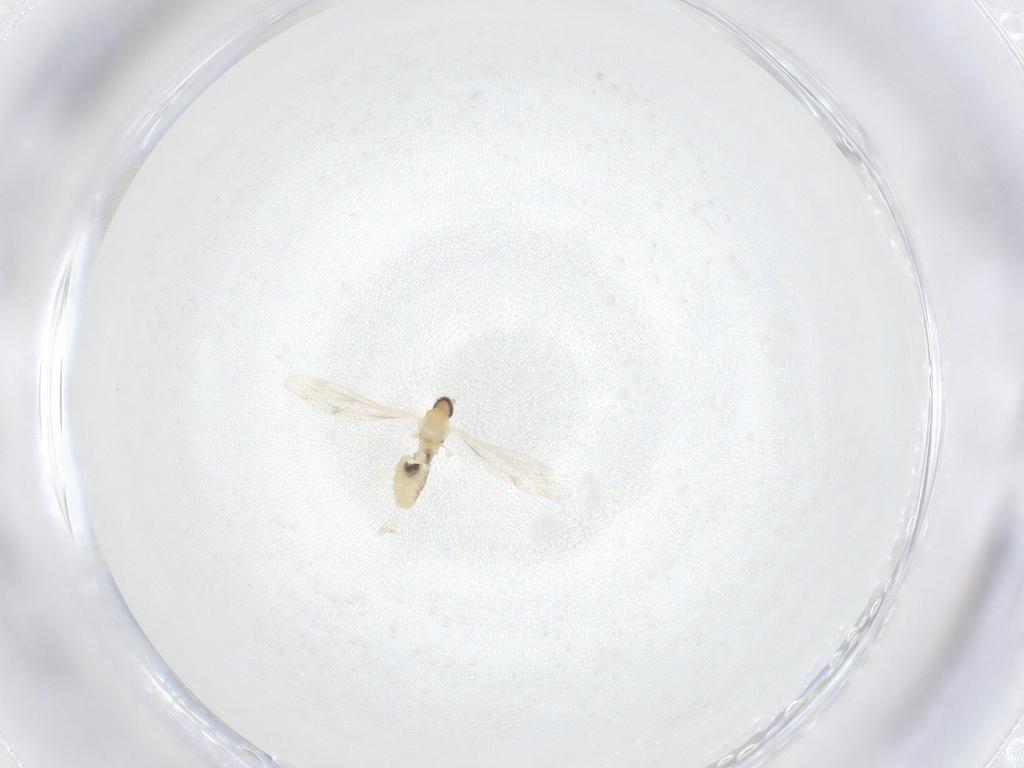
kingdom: Animalia
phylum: Arthropoda
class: Insecta
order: Diptera
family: Cecidomyiidae
